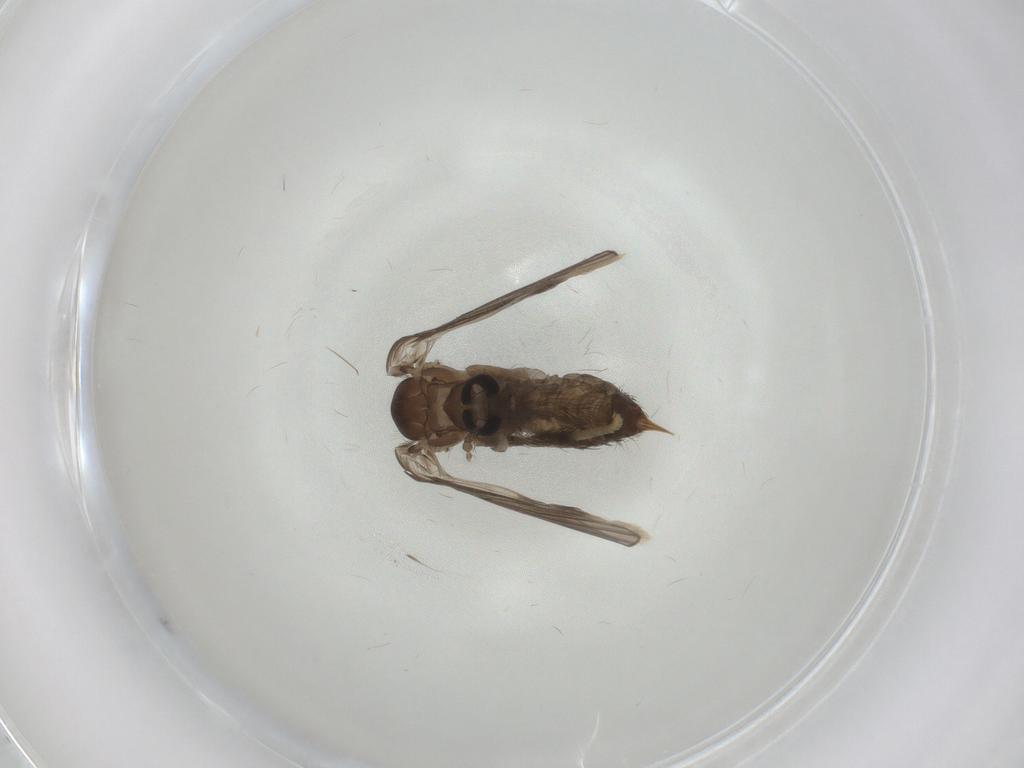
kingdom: Animalia
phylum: Arthropoda
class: Insecta
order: Diptera
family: Psychodidae
